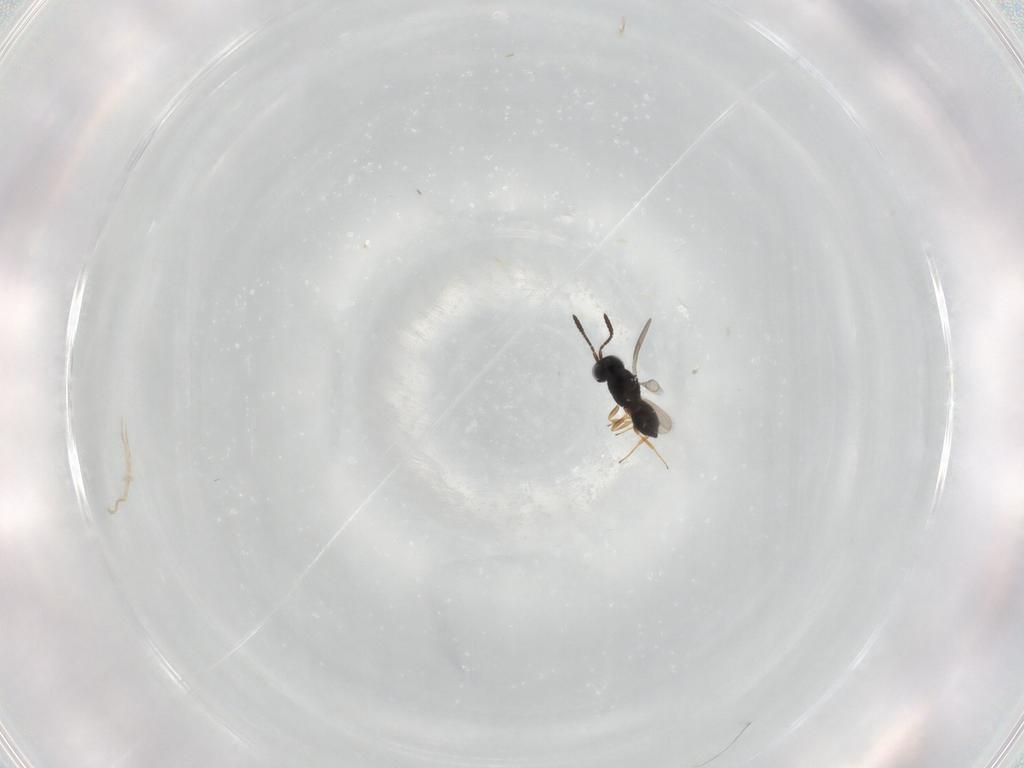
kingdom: Animalia
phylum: Arthropoda
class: Insecta
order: Hymenoptera
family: Scelionidae
